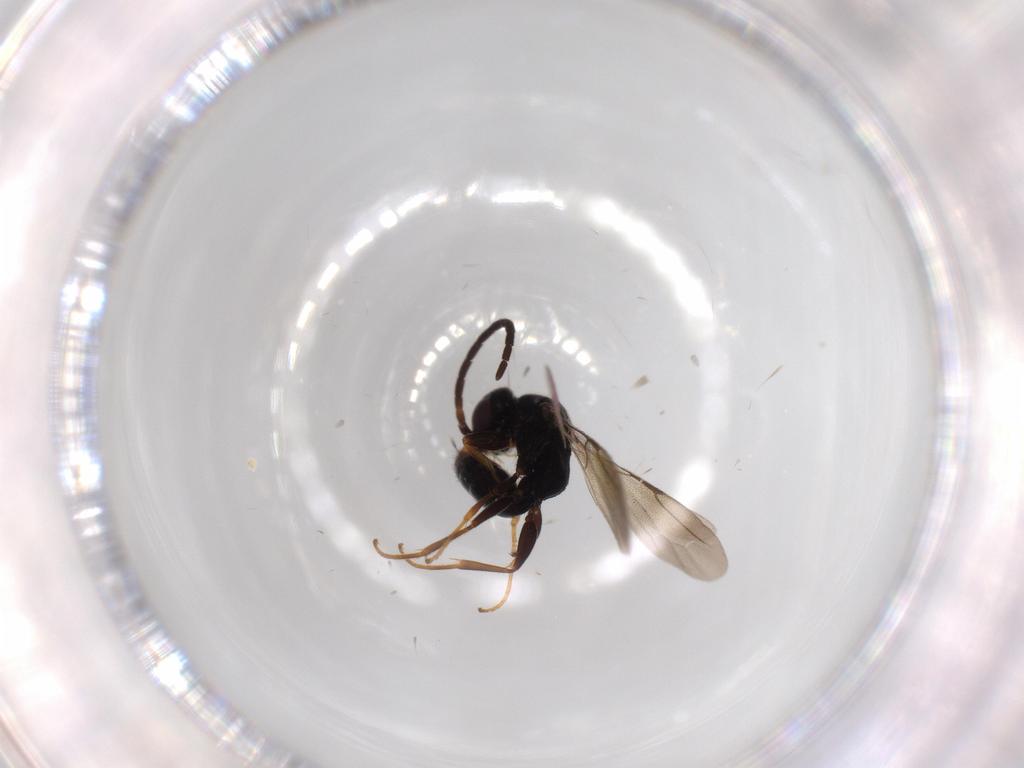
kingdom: Animalia
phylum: Arthropoda
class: Insecta
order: Hymenoptera
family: Bethylidae
